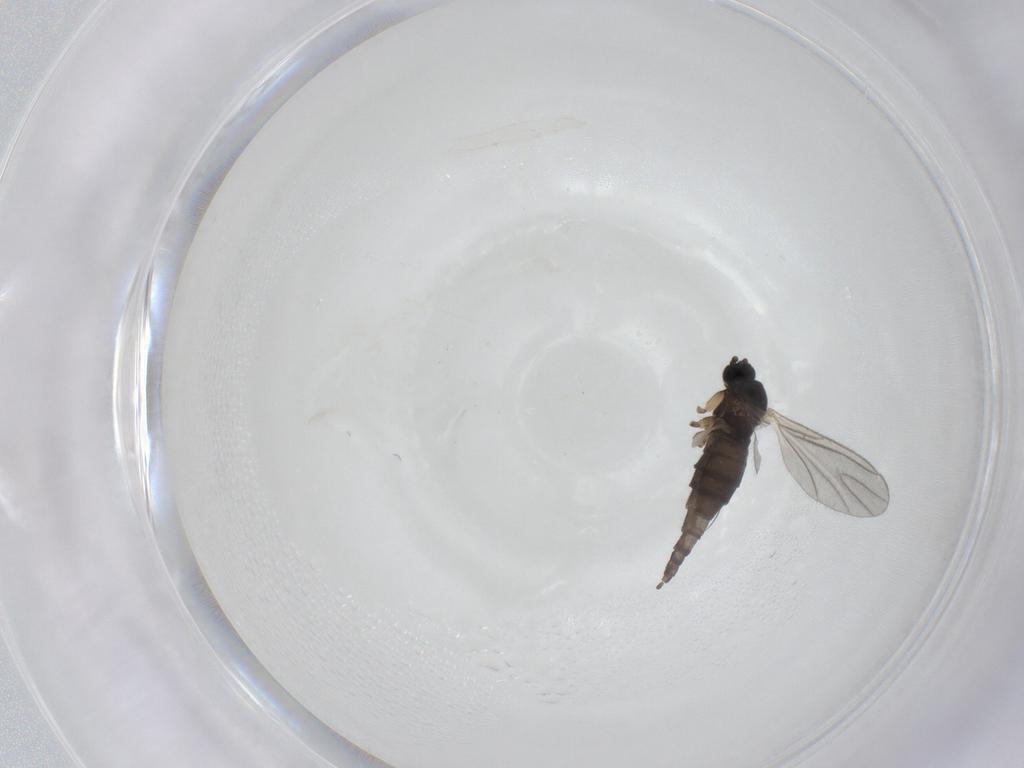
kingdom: Animalia
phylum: Arthropoda
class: Insecta
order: Diptera
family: Sciaridae
